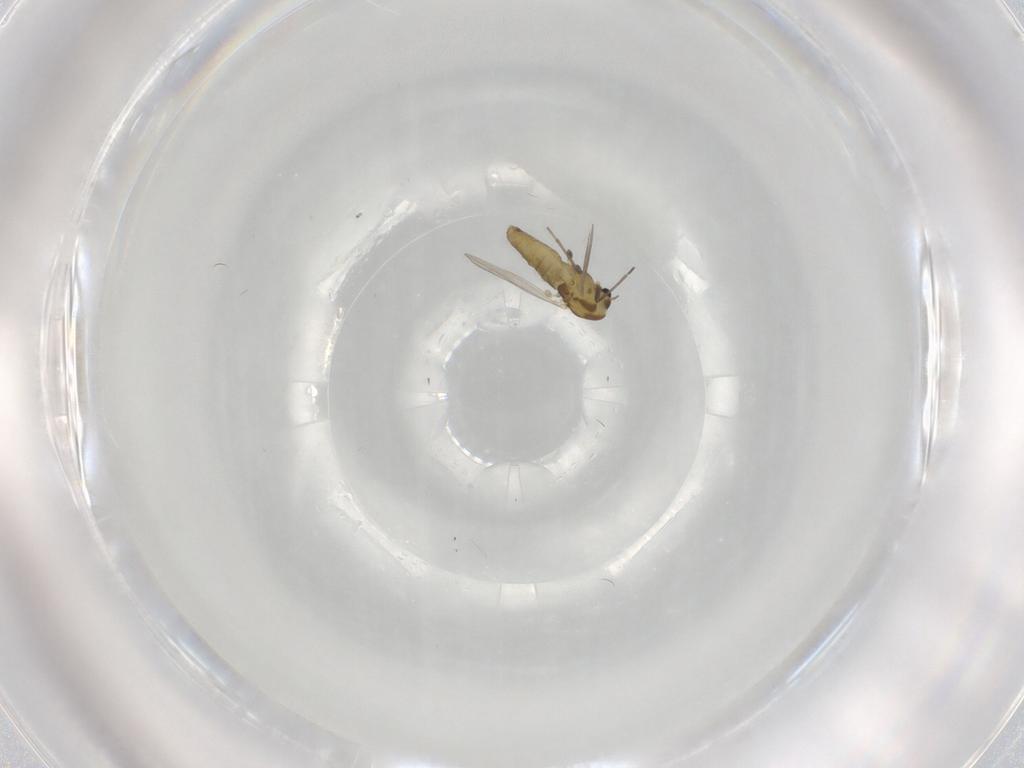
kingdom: Animalia
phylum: Arthropoda
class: Insecta
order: Diptera
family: Chironomidae
